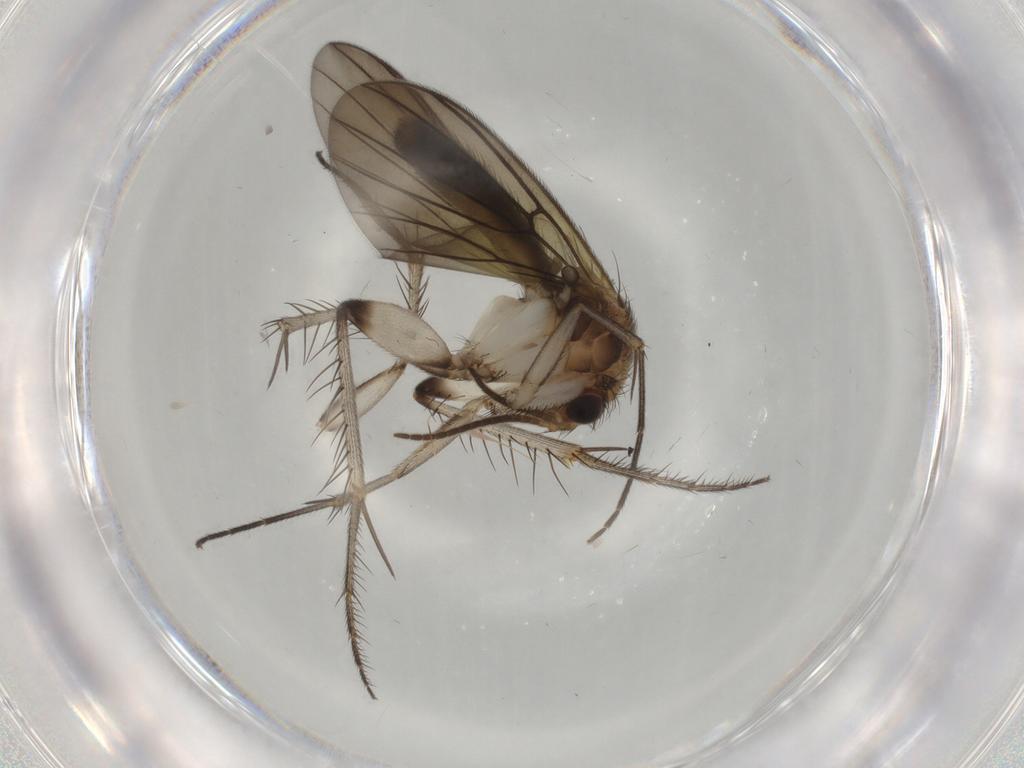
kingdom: Animalia
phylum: Arthropoda
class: Insecta
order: Diptera
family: Mycetophilidae
